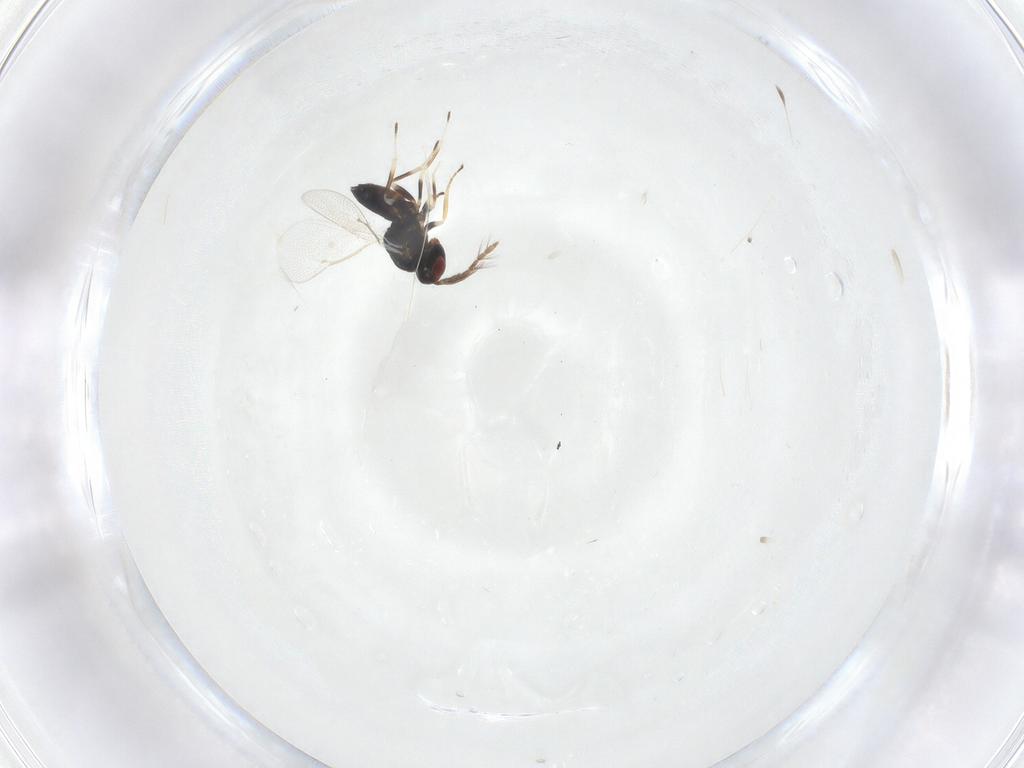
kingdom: Animalia
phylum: Arthropoda
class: Insecta
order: Hymenoptera
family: Eulophidae
